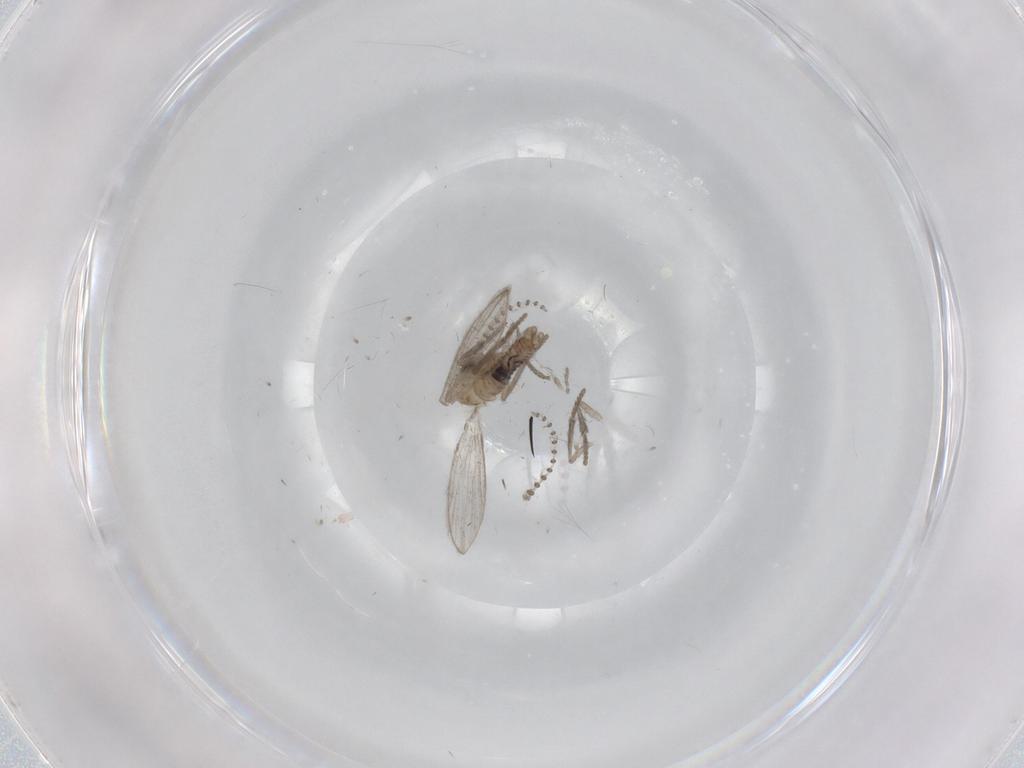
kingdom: Animalia
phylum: Arthropoda
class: Insecta
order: Diptera
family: Psychodidae
